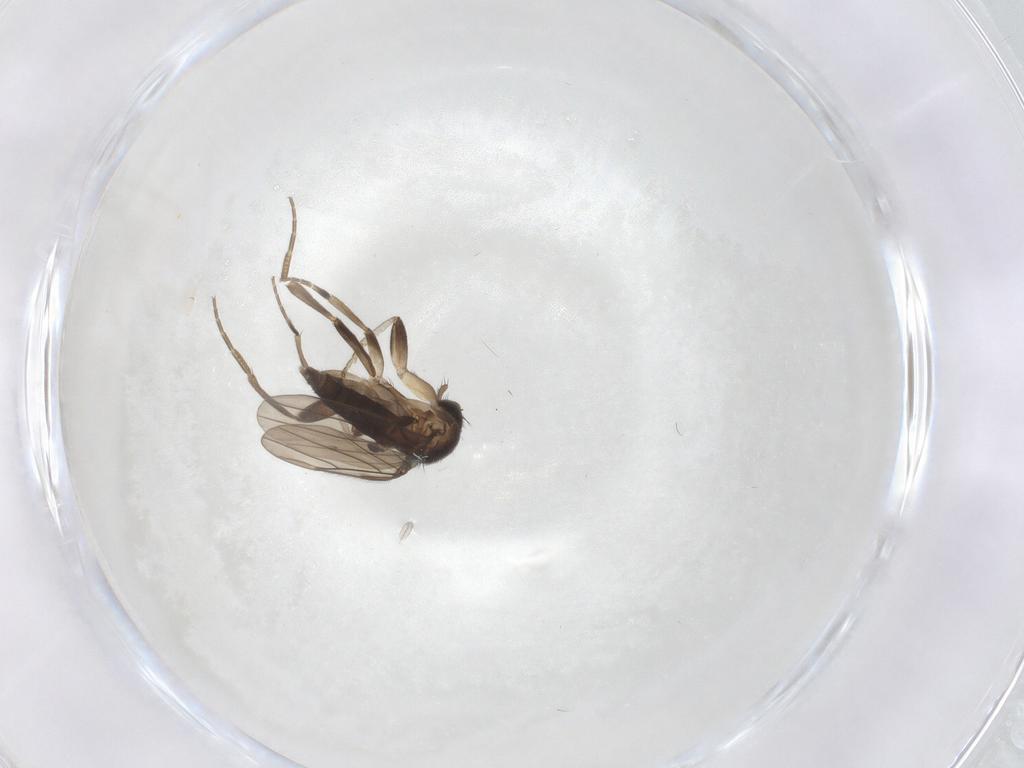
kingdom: Animalia
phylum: Arthropoda
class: Insecta
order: Diptera
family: Phoridae
